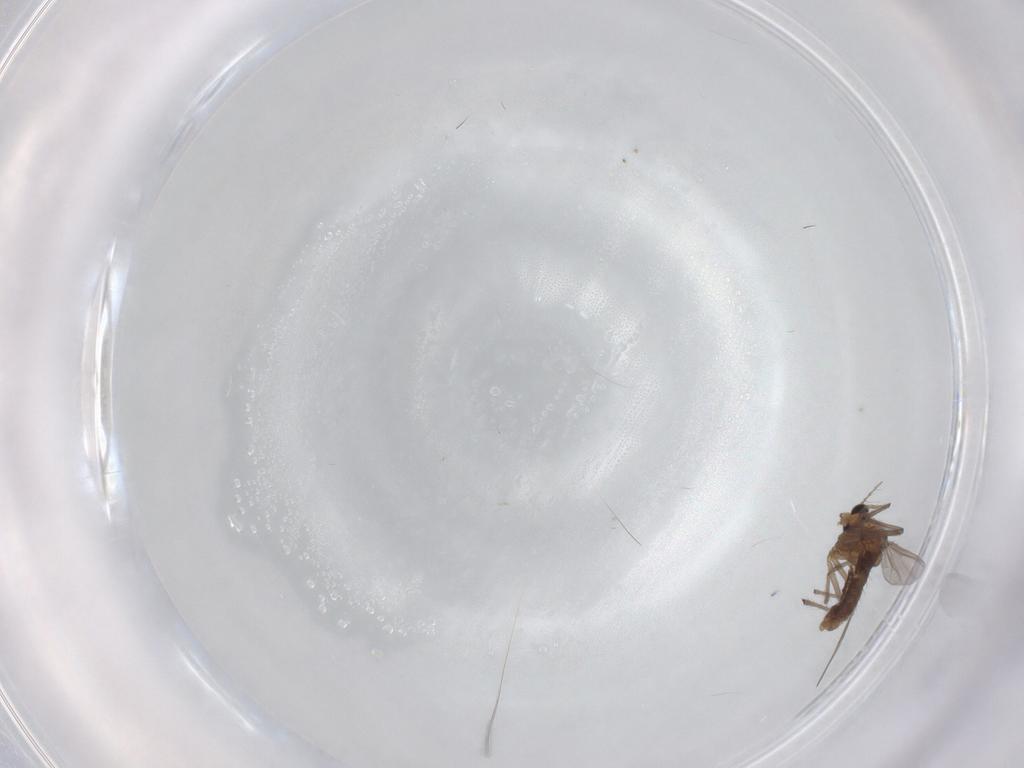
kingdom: Animalia
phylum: Arthropoda
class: Insecta
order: Diptera
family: Chironomidae
